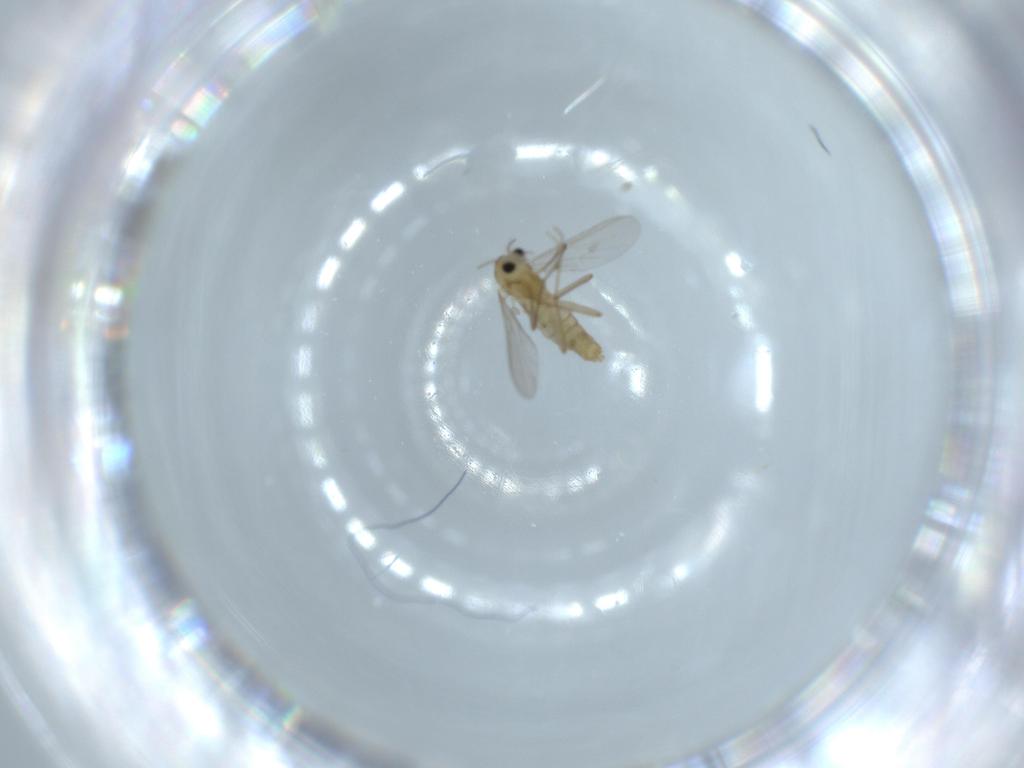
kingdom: Animalia
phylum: Arthropoda
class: Insecta
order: Diptera
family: Chironomidae
